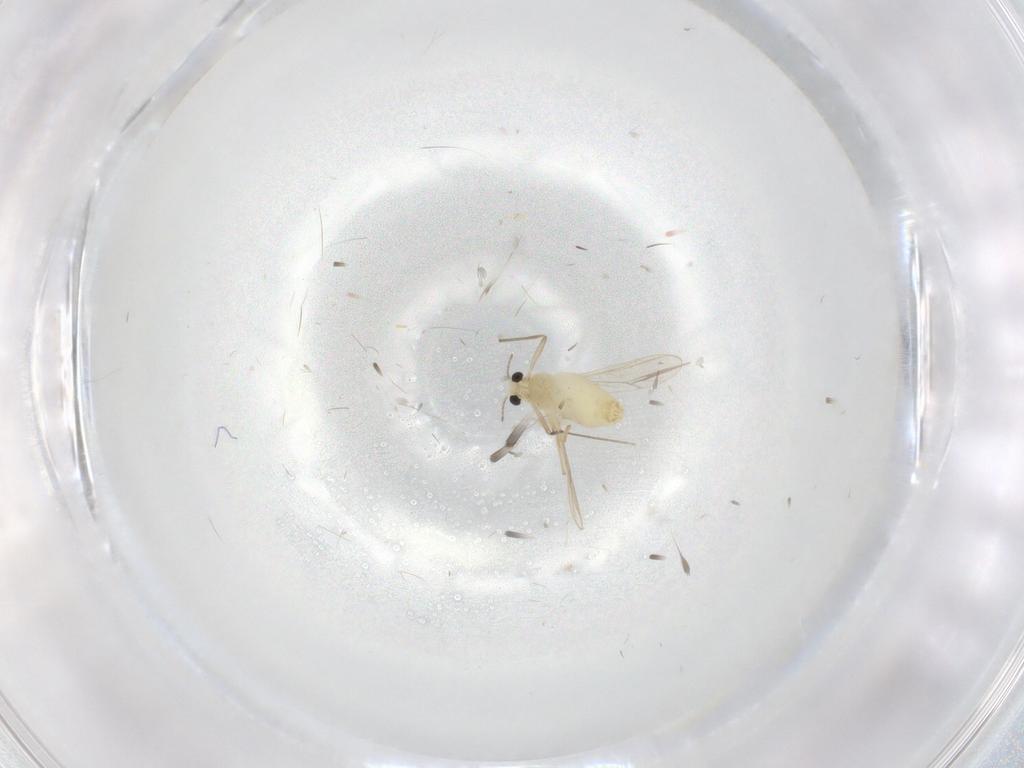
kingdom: Animalia
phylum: Arthropoda
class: Insecta
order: Diptera
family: Chironomidae
